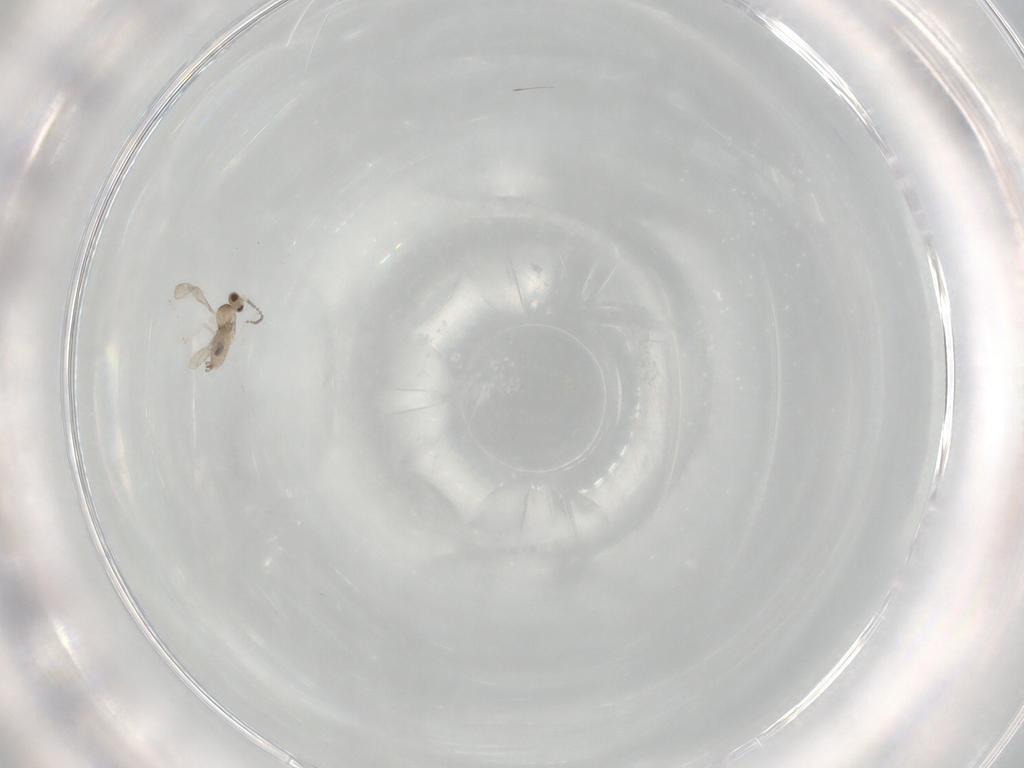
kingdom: Animalia
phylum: Arthropoda
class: Insecta
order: Diptera
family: Cecidomyiidae
